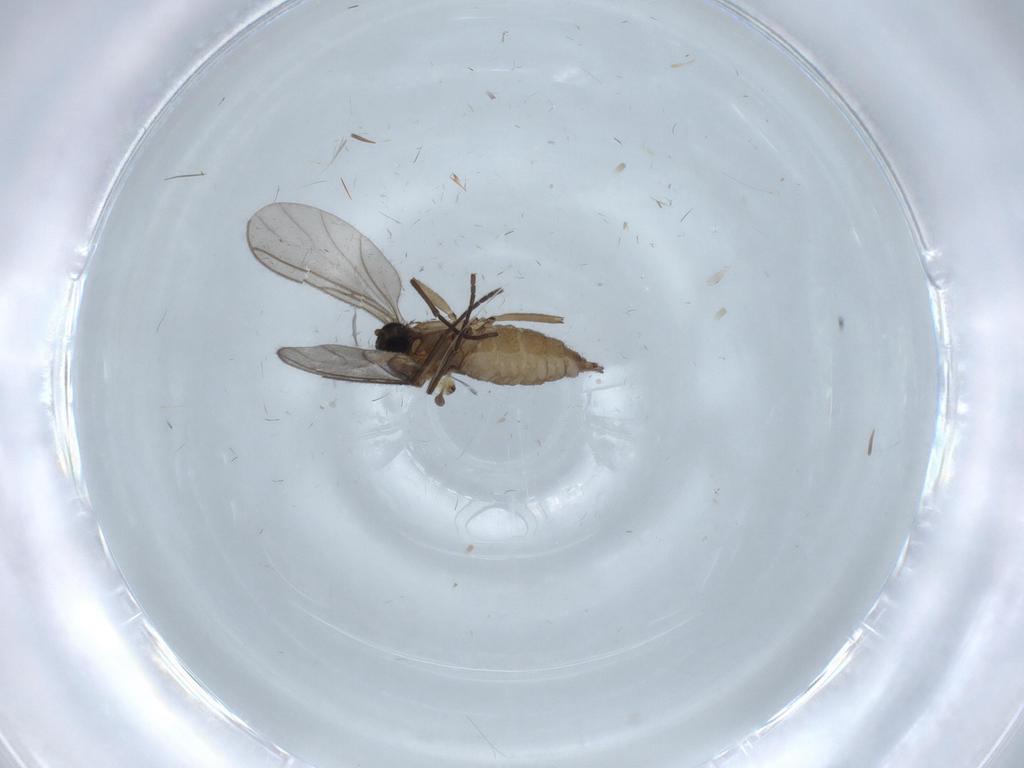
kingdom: Animalia
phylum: Arthropoda
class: Insecta
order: Diptera
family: Sciaridae
